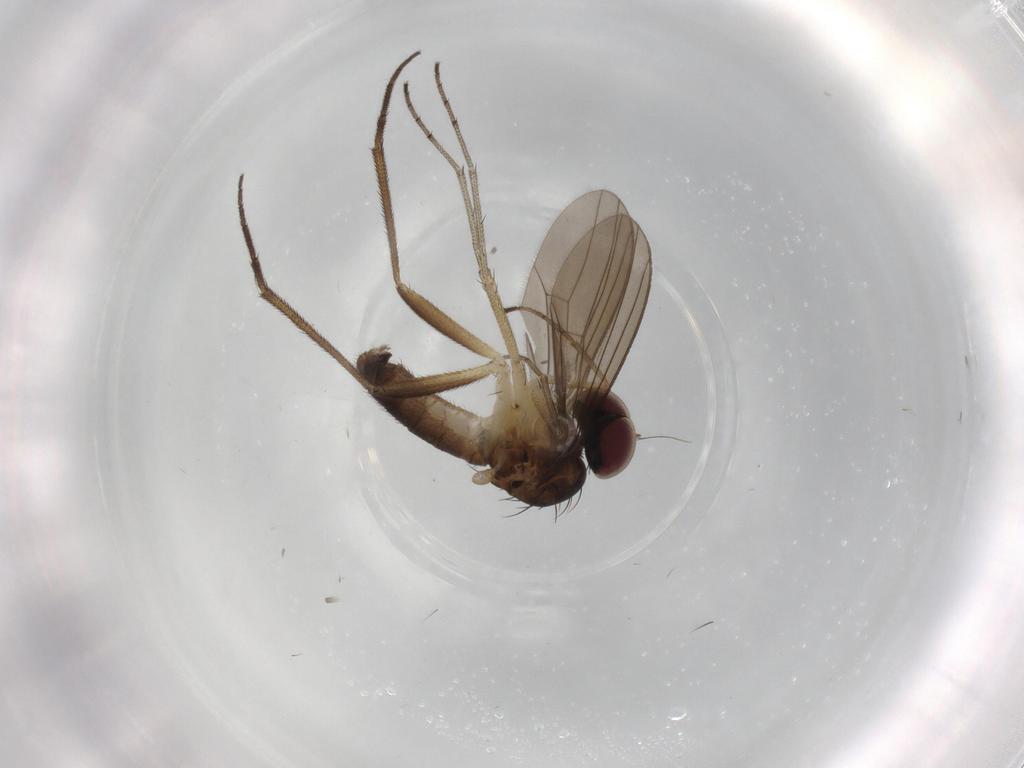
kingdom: Animalia
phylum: Arthropoda
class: Insecta
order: Diptera
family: Dolichopodidae
